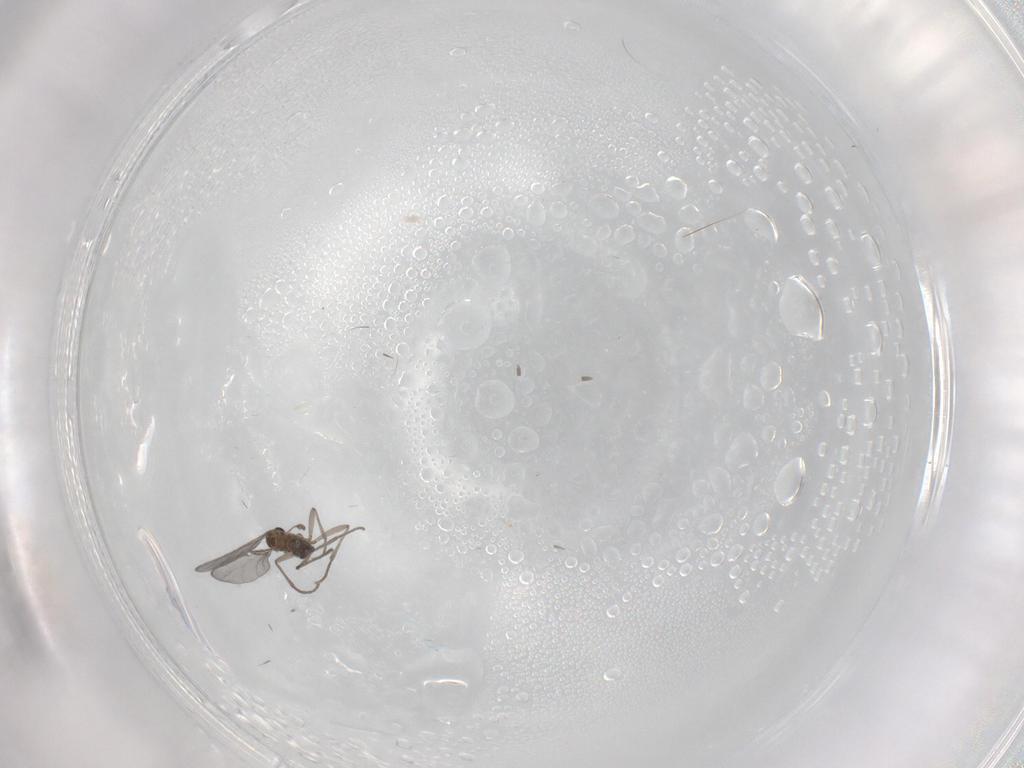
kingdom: Animalia
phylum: Arthropoda
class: Insecta
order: Diptera
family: Sciaridae
